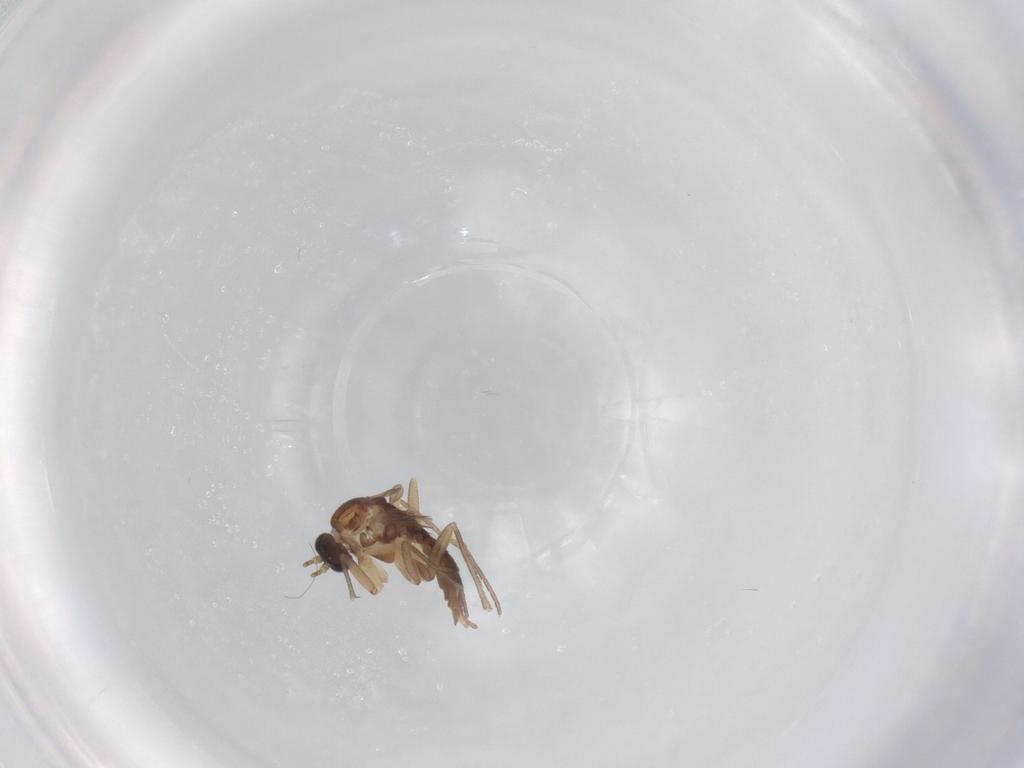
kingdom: Animalia
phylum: Arthropoda
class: Insecta
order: Diptera
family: Sciaridae
